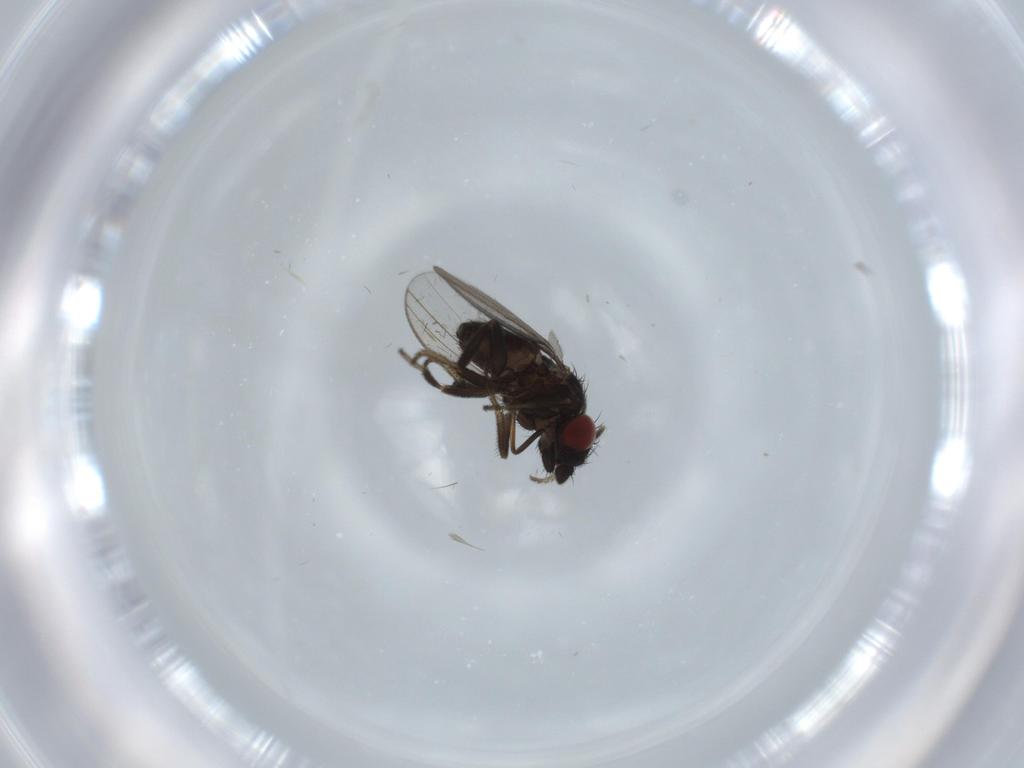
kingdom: Animalia
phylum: Arthropoda
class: Insecta
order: Diptera
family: Milichiidae
